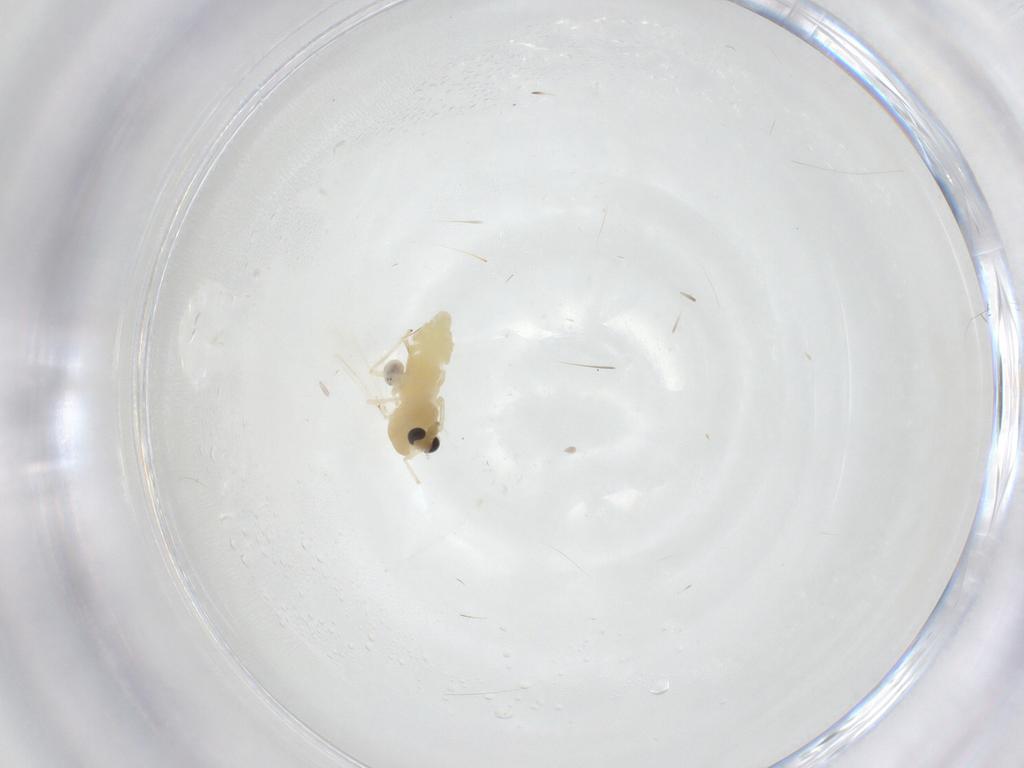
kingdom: Animalia
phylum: Arthropoda
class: Insecta
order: Diptera
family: Chironomidae
